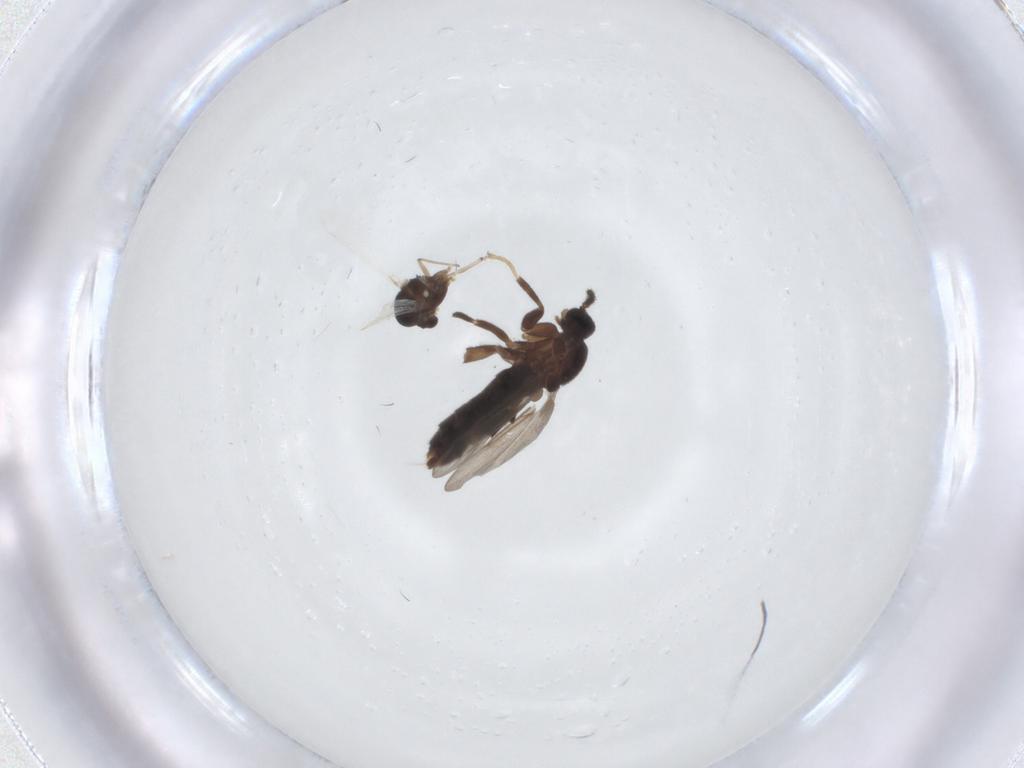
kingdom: Animalia
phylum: Arthropoda
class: Insecta
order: Diptera
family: Chironomidae
